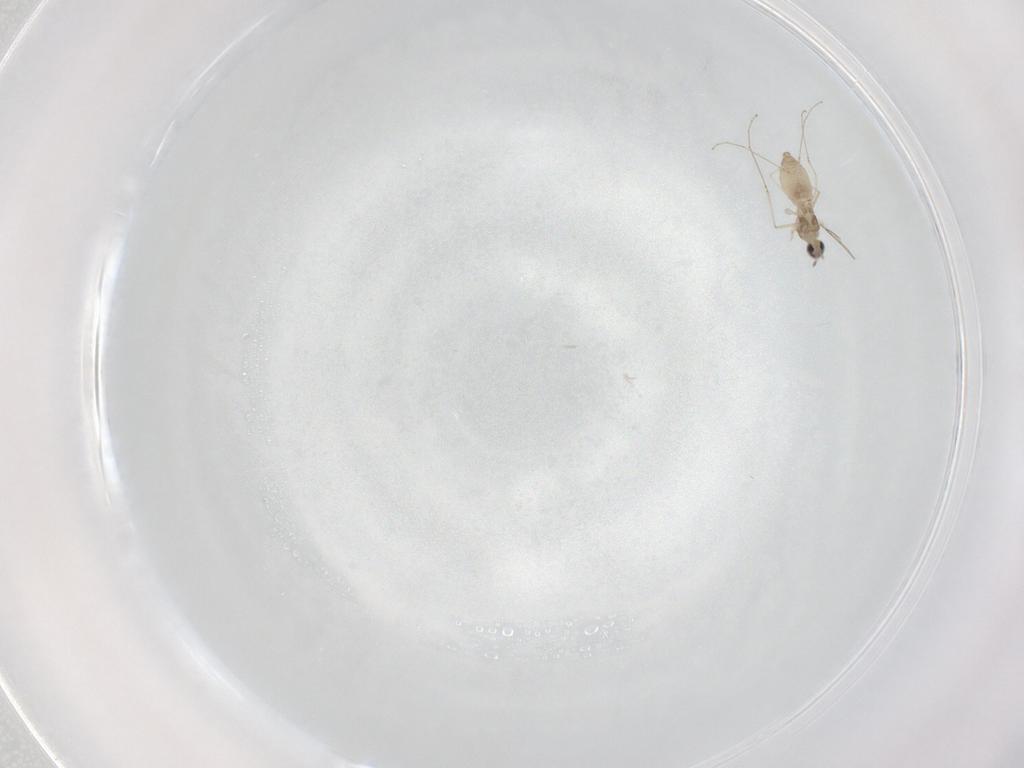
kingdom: Animalia
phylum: Arthropoda
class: Insecta
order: Diptera
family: Cecidomyiidae
